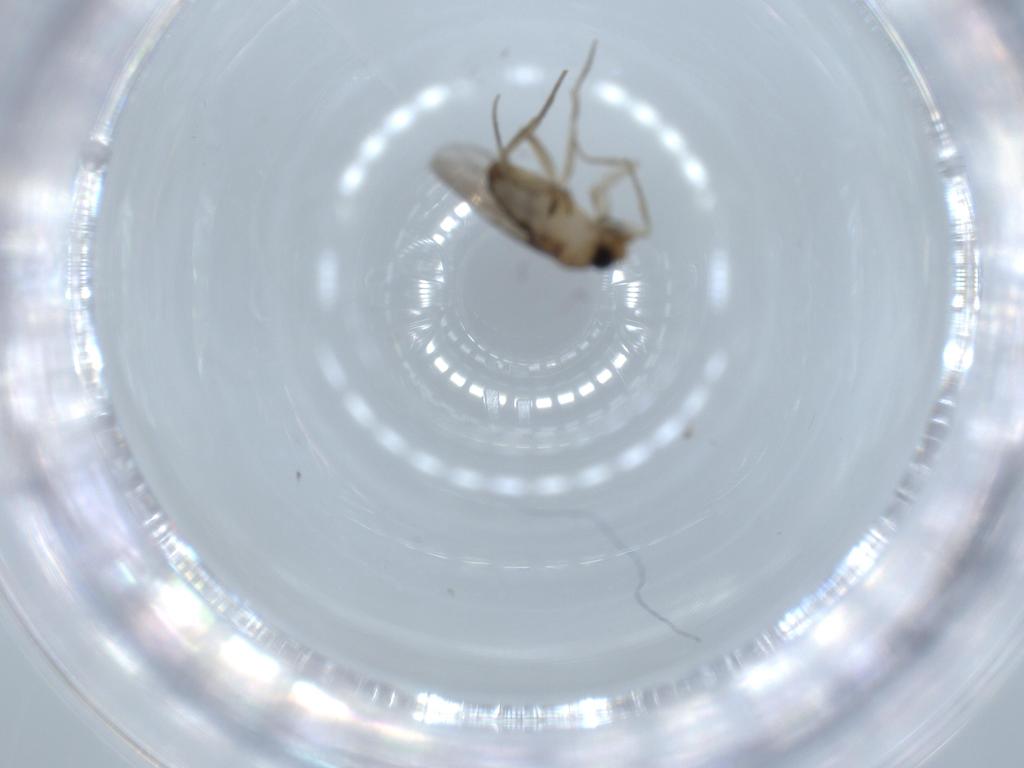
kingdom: Animalia
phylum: Arthropoda
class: Insecta
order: Diptera
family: Phoridae
